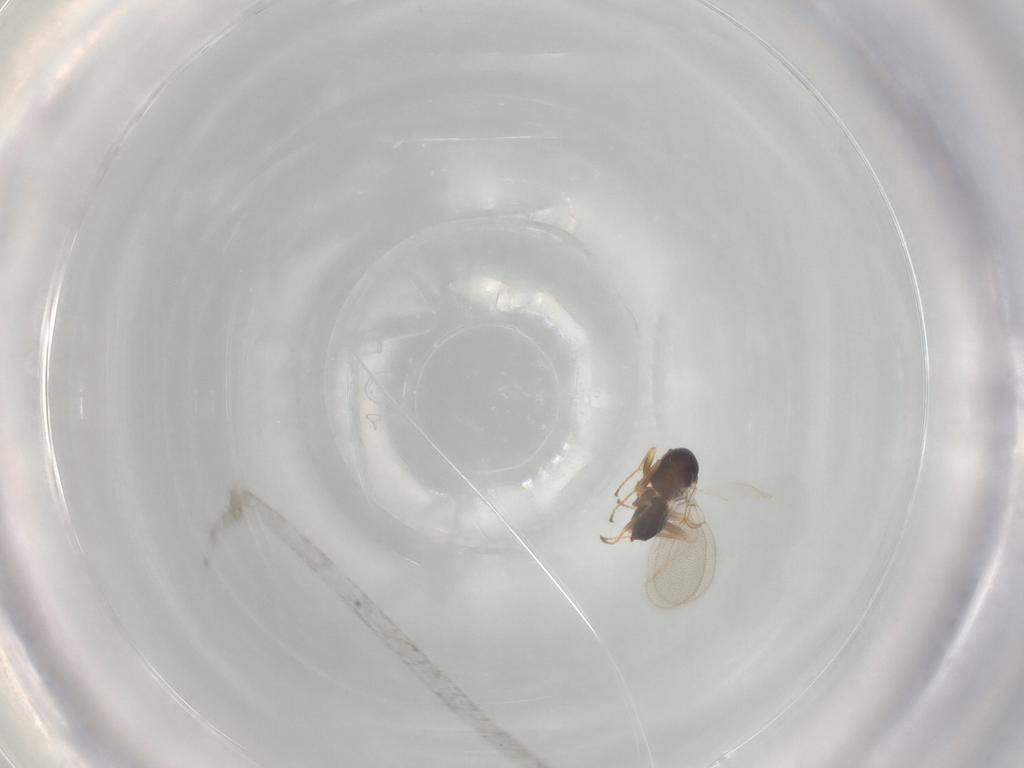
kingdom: Animalia
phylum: Arthropoda
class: Insecta
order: Hymenoptera
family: Figitidae
